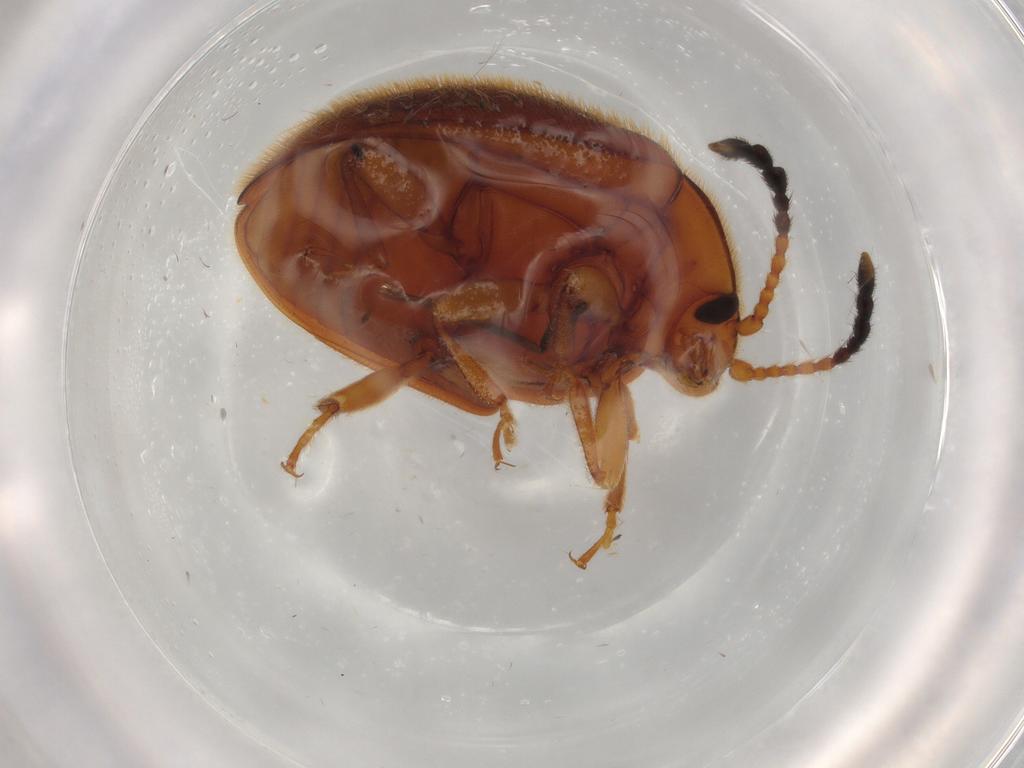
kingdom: Animalia
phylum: Arthropoda
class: Insecta
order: Coleoptera
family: Endomychidae
